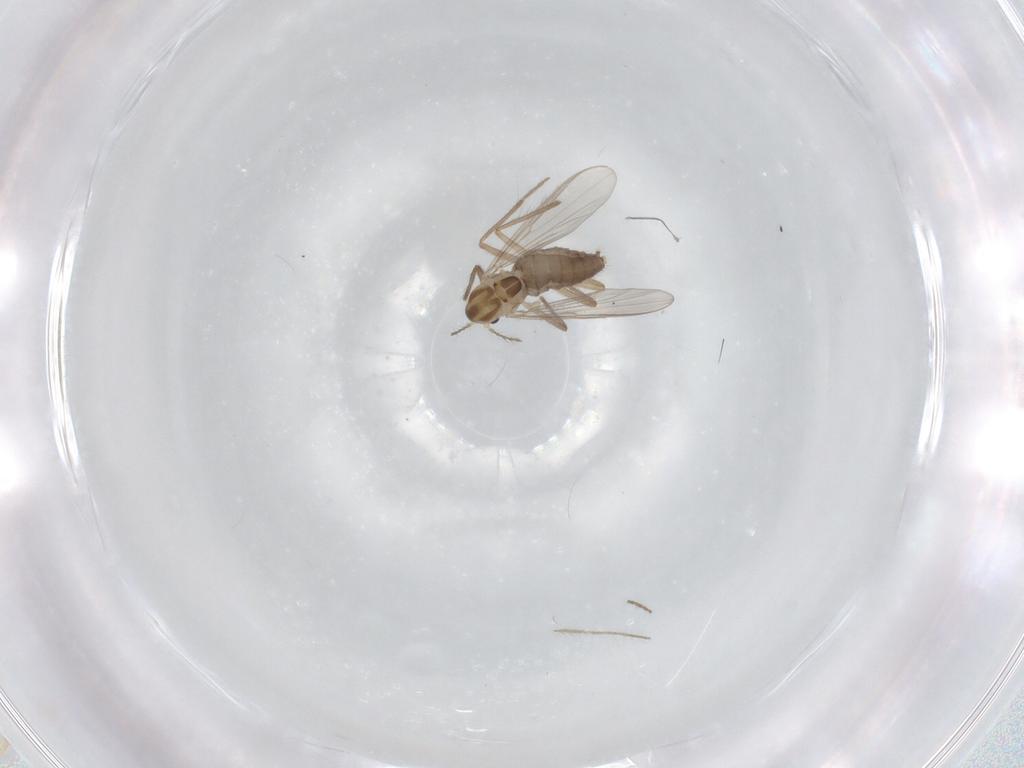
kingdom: Animalia
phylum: Arthropoda
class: Insecta
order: Diptera
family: Chironomidae
